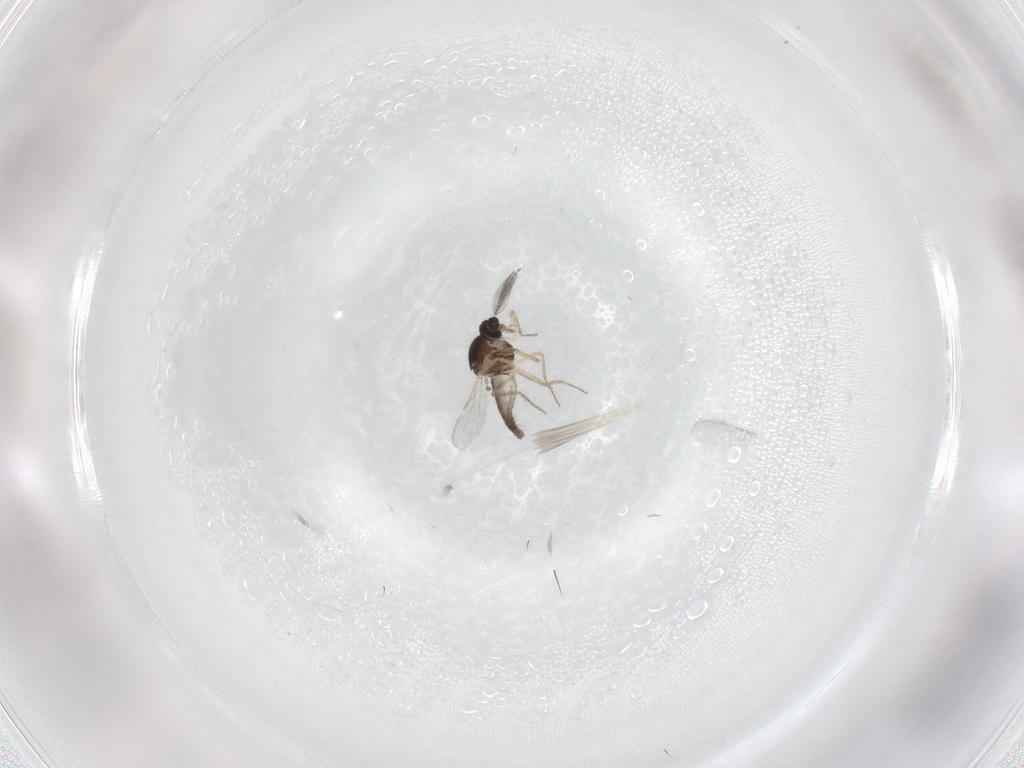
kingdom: Animalia
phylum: Arthropoda
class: Insecta
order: Diptera
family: Ceratopogonidae
